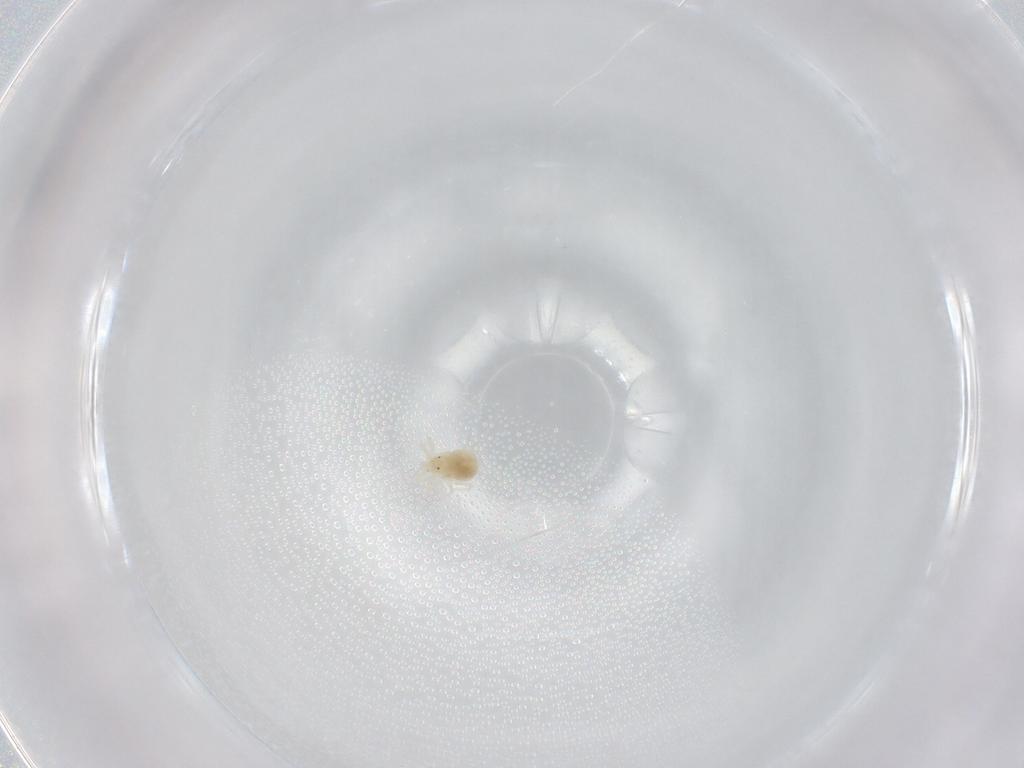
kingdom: Animalia
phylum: Arthropoda
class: Arachnida
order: Trombidiformes
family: Anystidae
